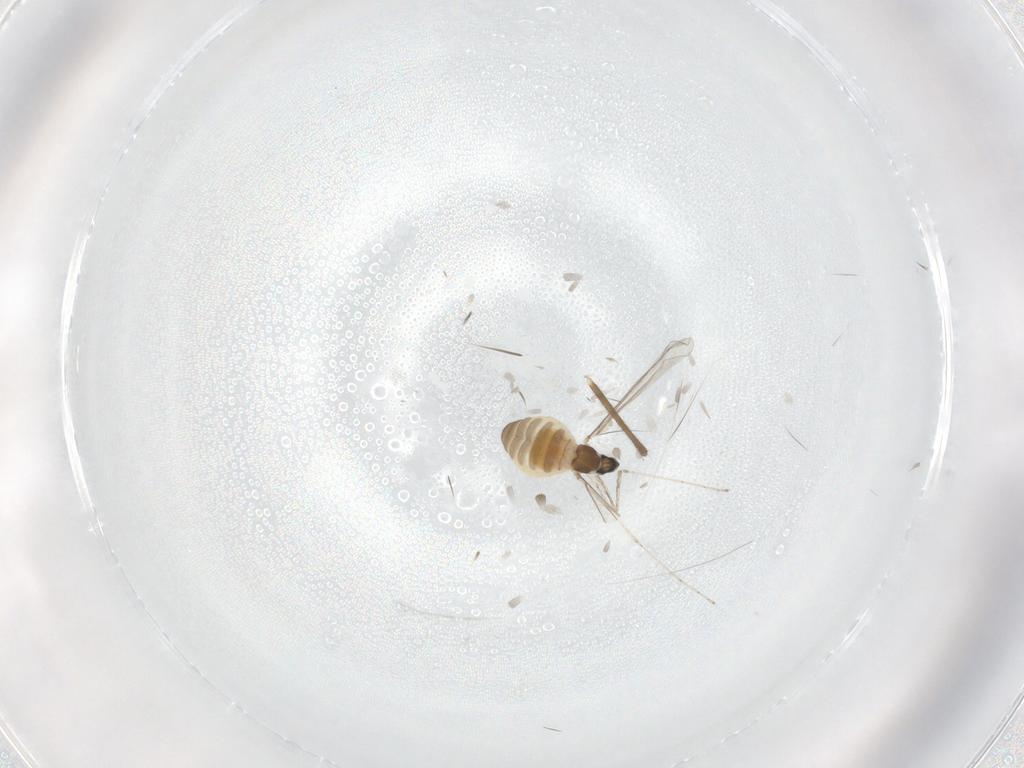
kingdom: Animalia
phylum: Arthropoda
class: Insecta
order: Diptera
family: Cecidomyiidae
